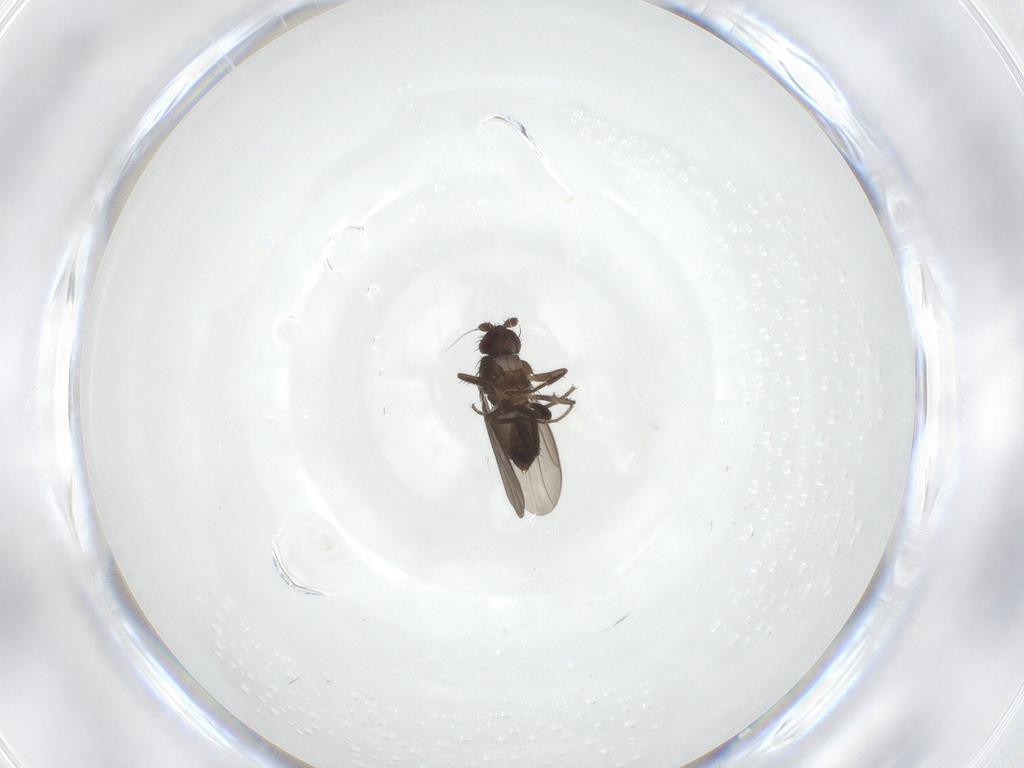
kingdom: Animalia
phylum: Arthropoda
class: Insecta
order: Diptera
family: Sphaeroceridae
